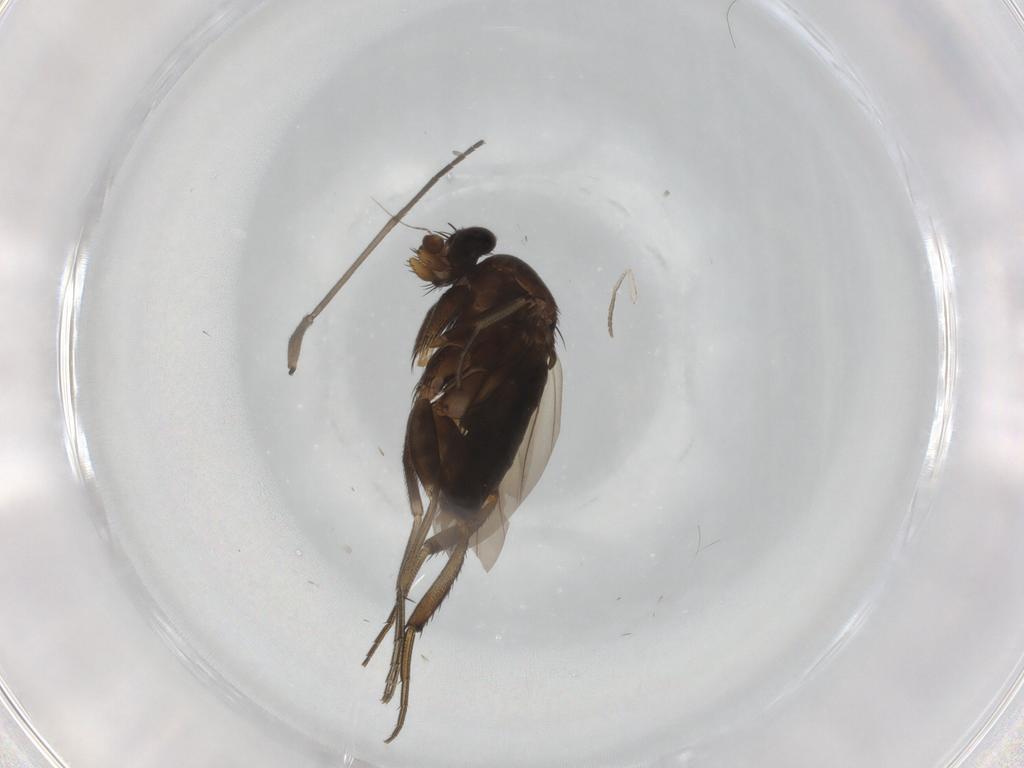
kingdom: Animalia
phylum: Arthropoda
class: Insecta
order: Diptera
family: Phoridae
